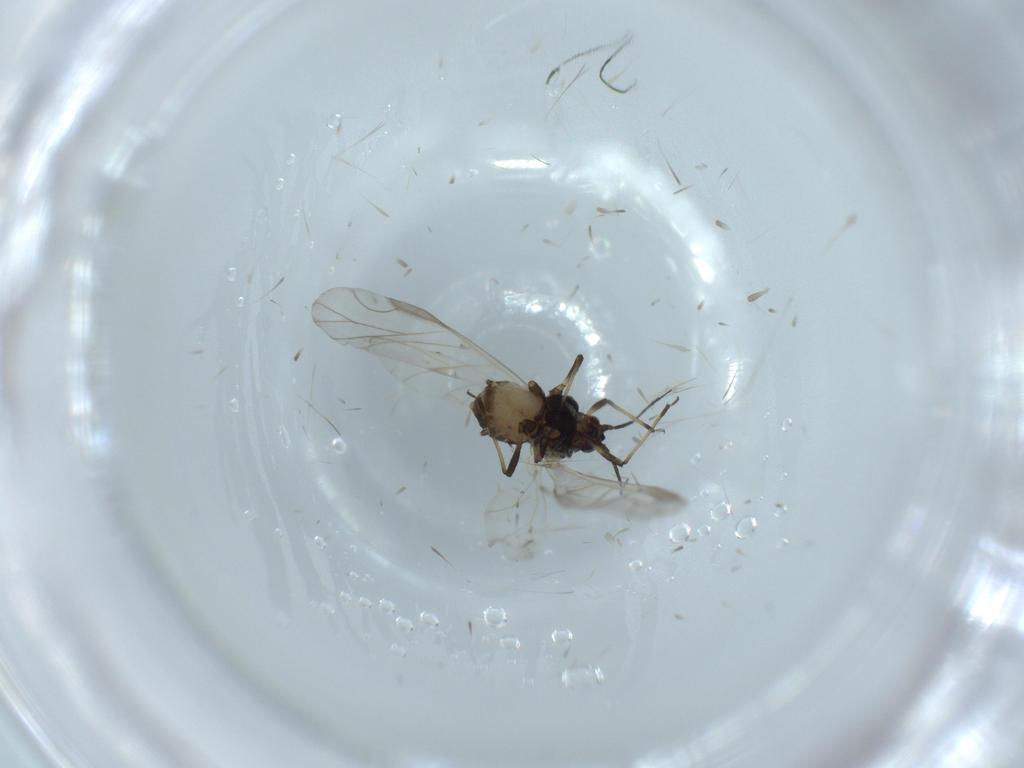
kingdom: Animalia
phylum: Arthropoda
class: Insecta
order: Hemiptera
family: Aphididae
